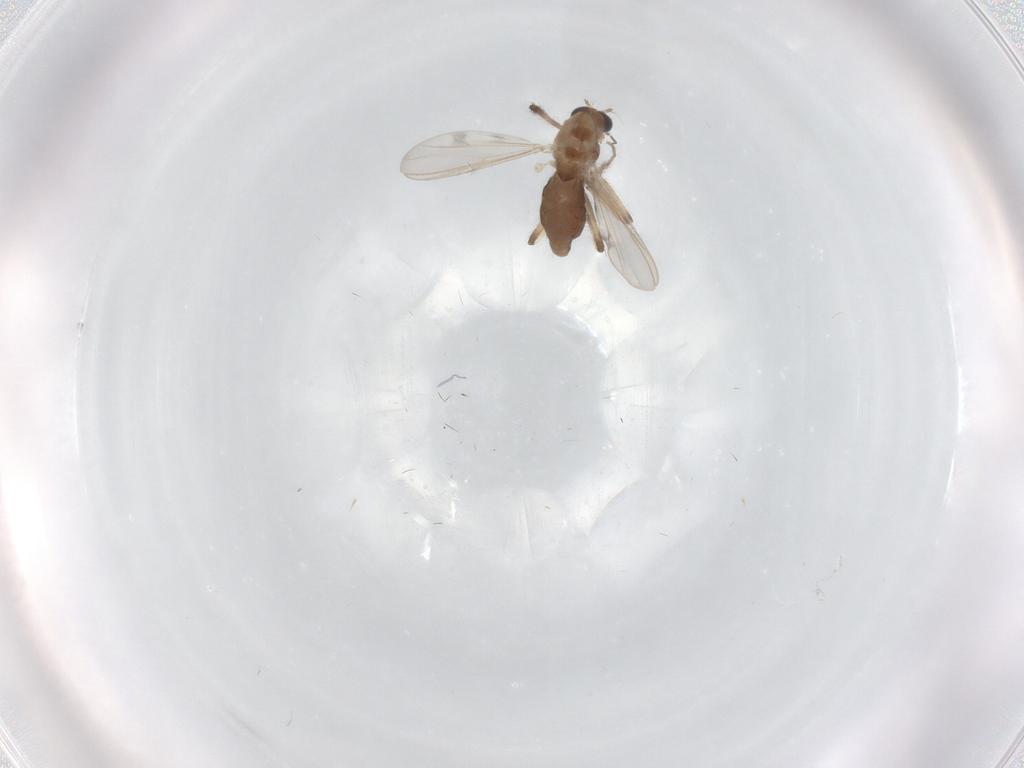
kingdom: Animalia
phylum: Arthropoda
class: Insecta
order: Diptera
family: Chironomidae
